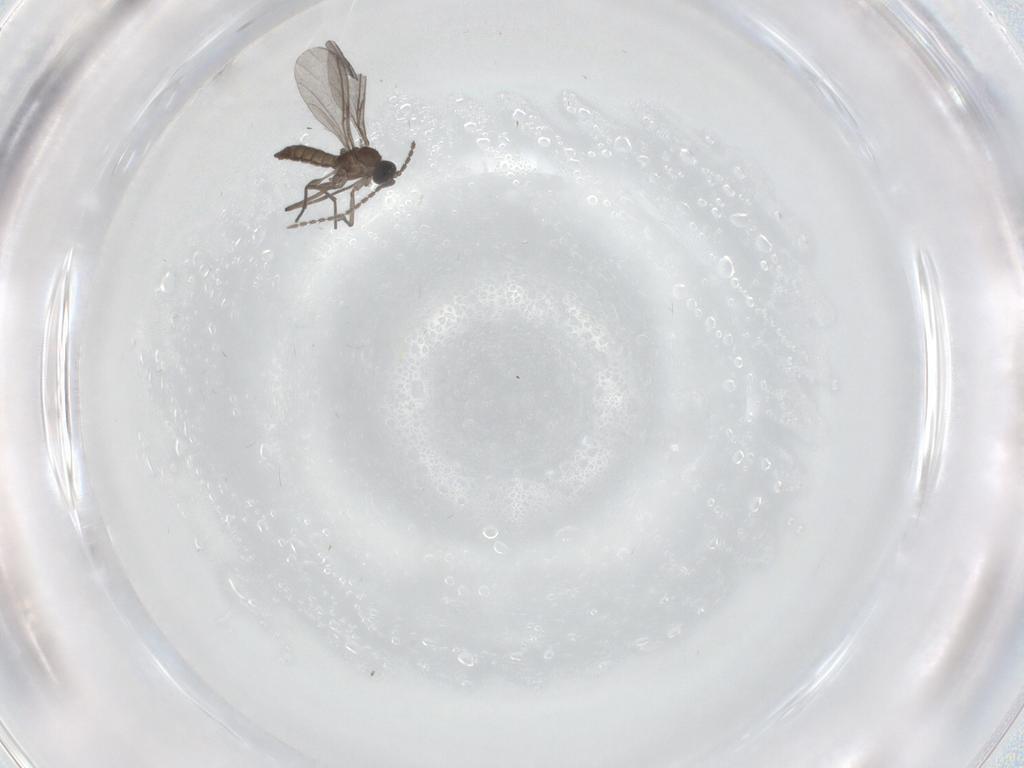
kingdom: Animalia
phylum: Arthropoda
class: Insecta
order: Diptera
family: Sciaridae
